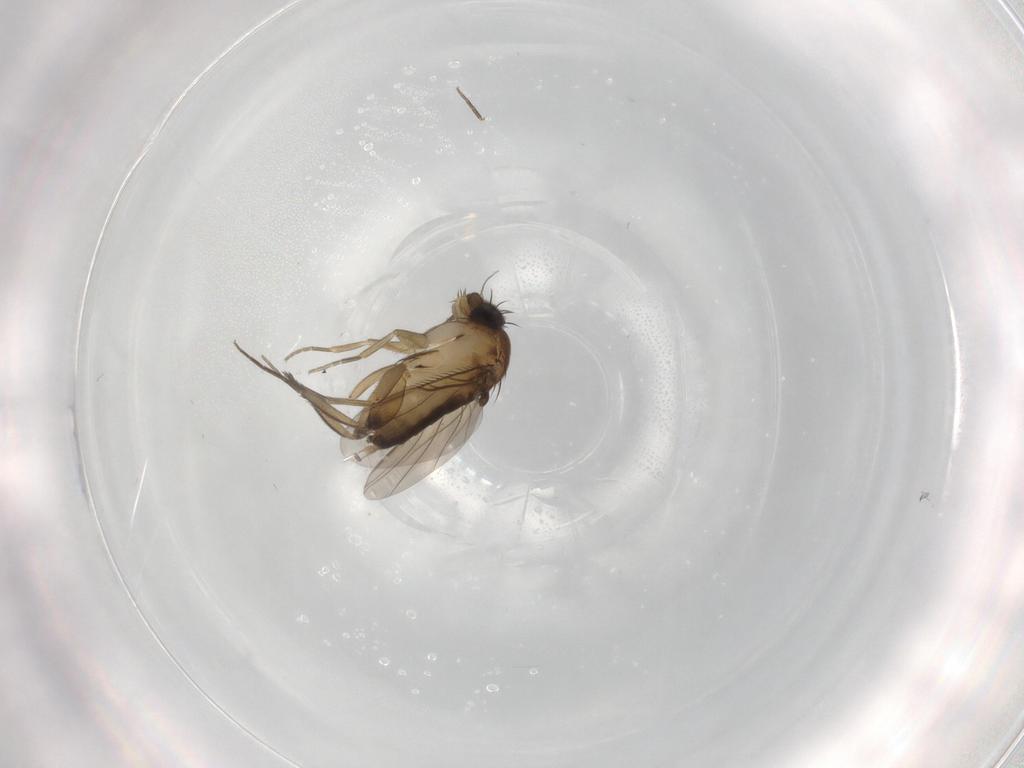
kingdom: Animalia
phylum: Arthropoda
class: Insecta
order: Diptera
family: Phoridae
